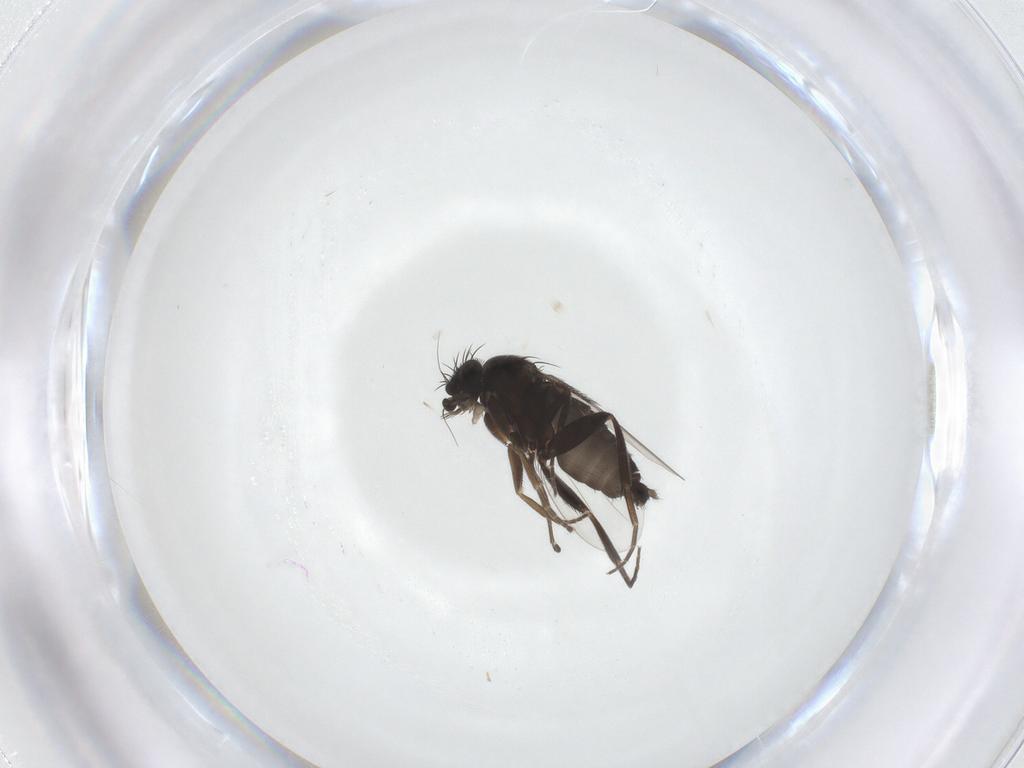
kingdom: Animalia
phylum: Arthropoda
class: Insecta
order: Diptera
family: Phoridae
